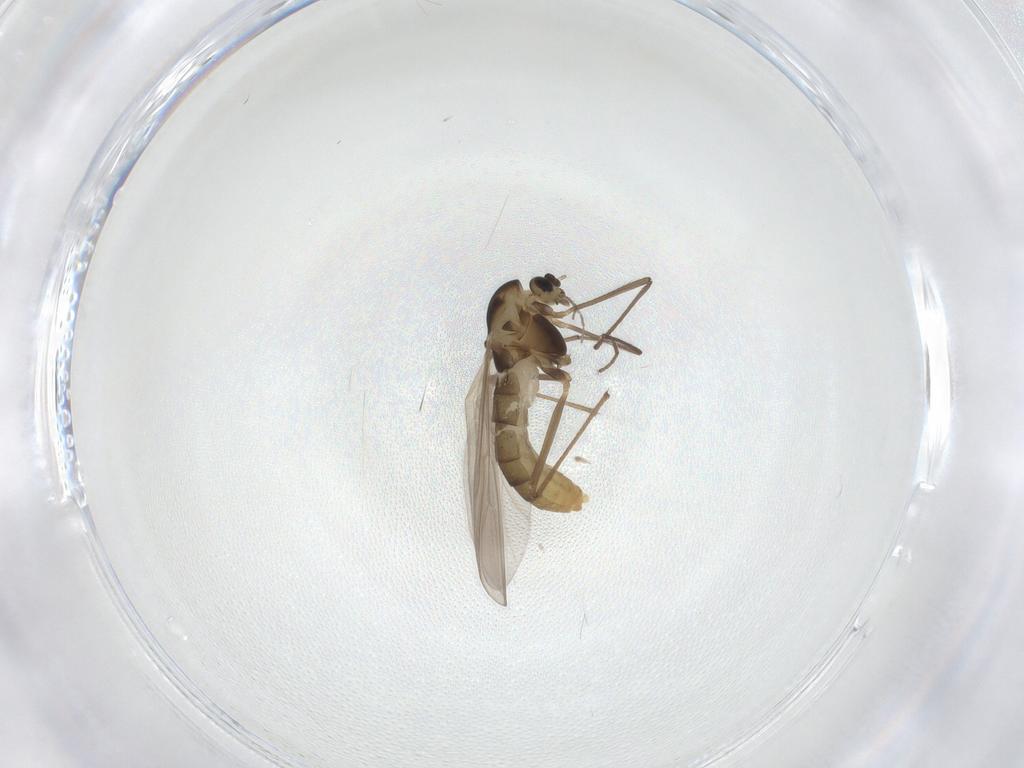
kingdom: Animalia
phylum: Arthropoda
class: Insecta
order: Diptera
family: Chironomidae
